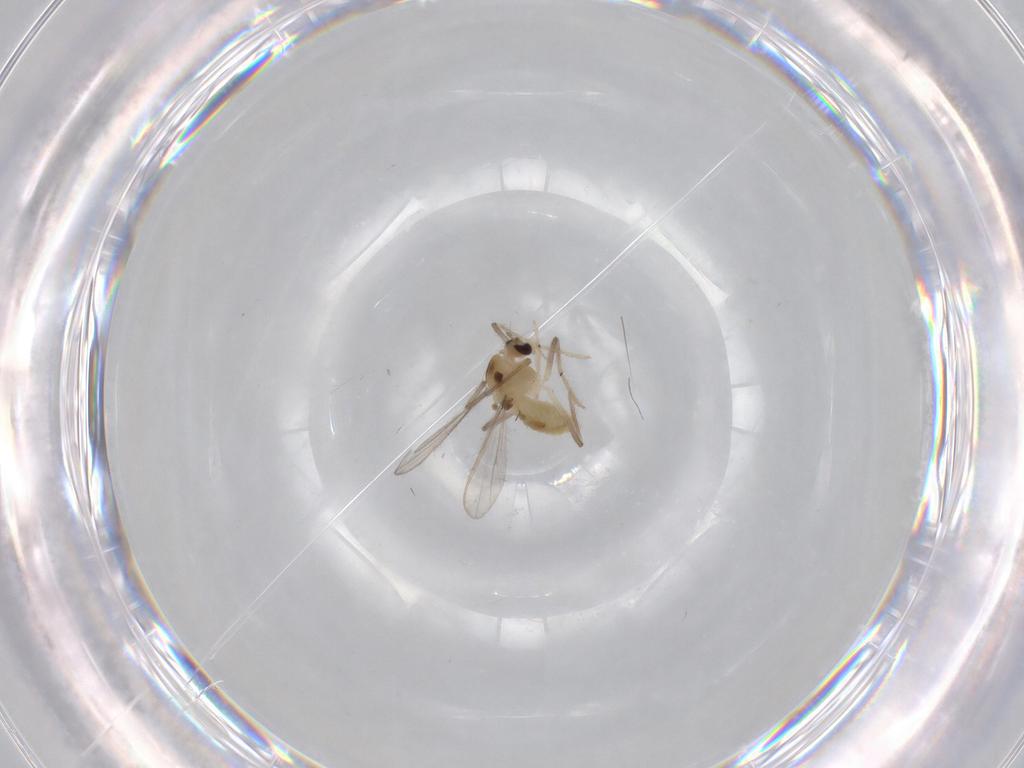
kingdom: Animalia
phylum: Arthropoda
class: Insecta
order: Diptera
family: Chironomidae
